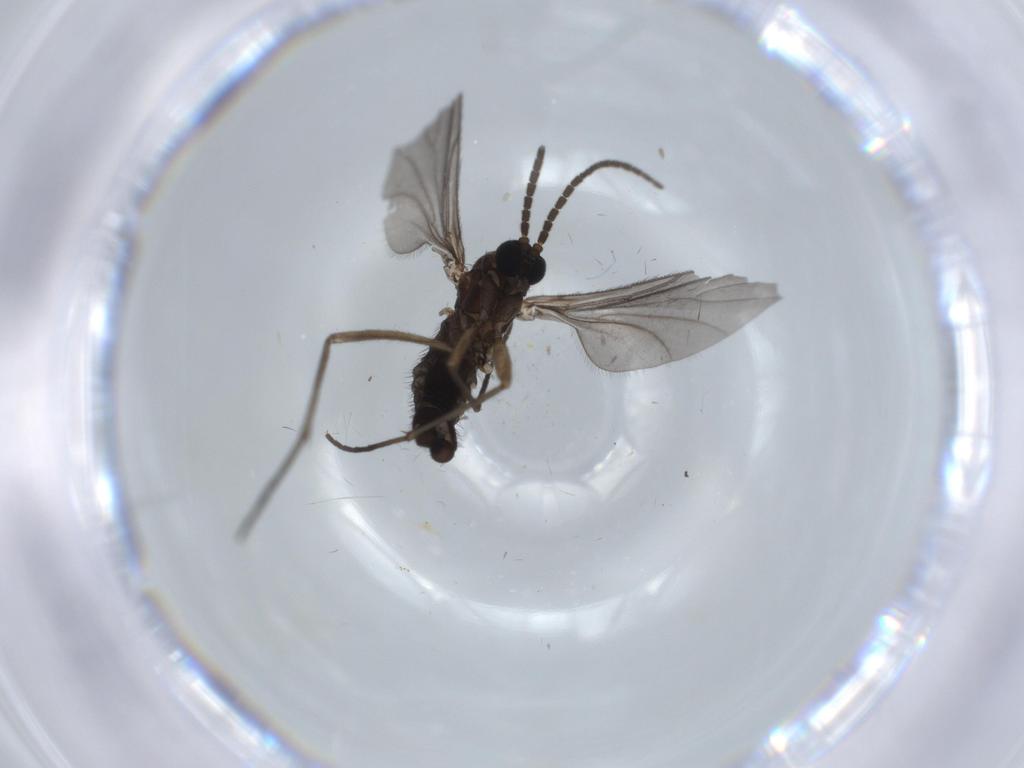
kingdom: Animalia
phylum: Arthropoda
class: Insecta
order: Diptera
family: Sciaridae
